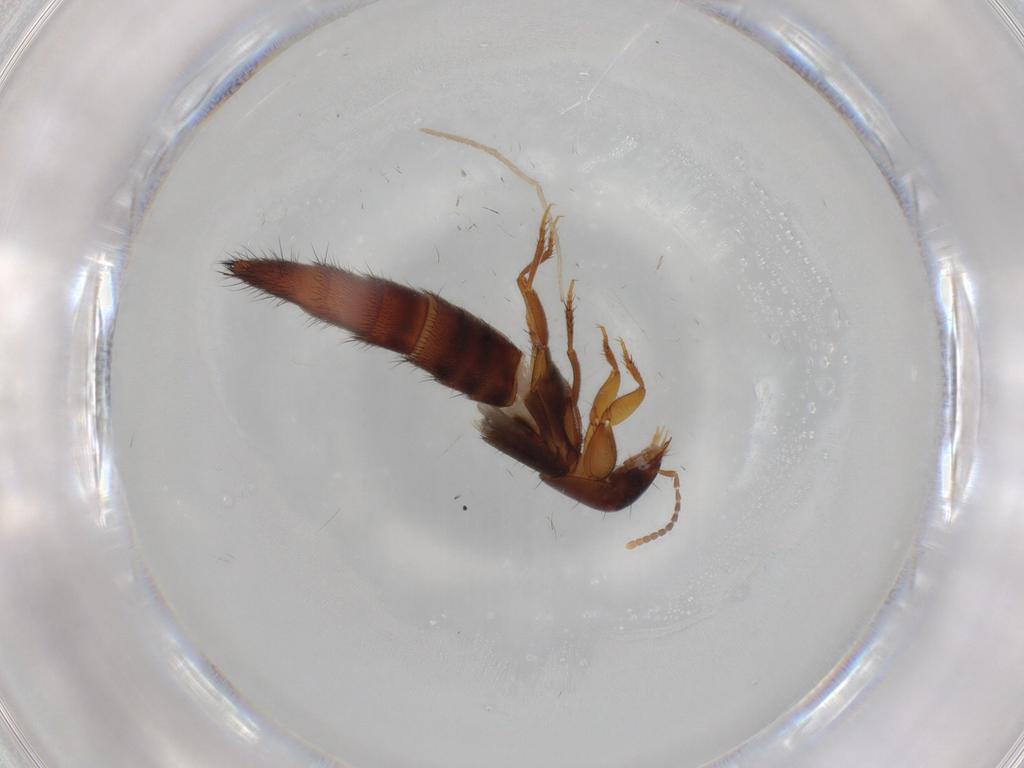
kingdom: Animalia
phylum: Arthropoda
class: Insecta
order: Coleoptera
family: Staphylinidae
